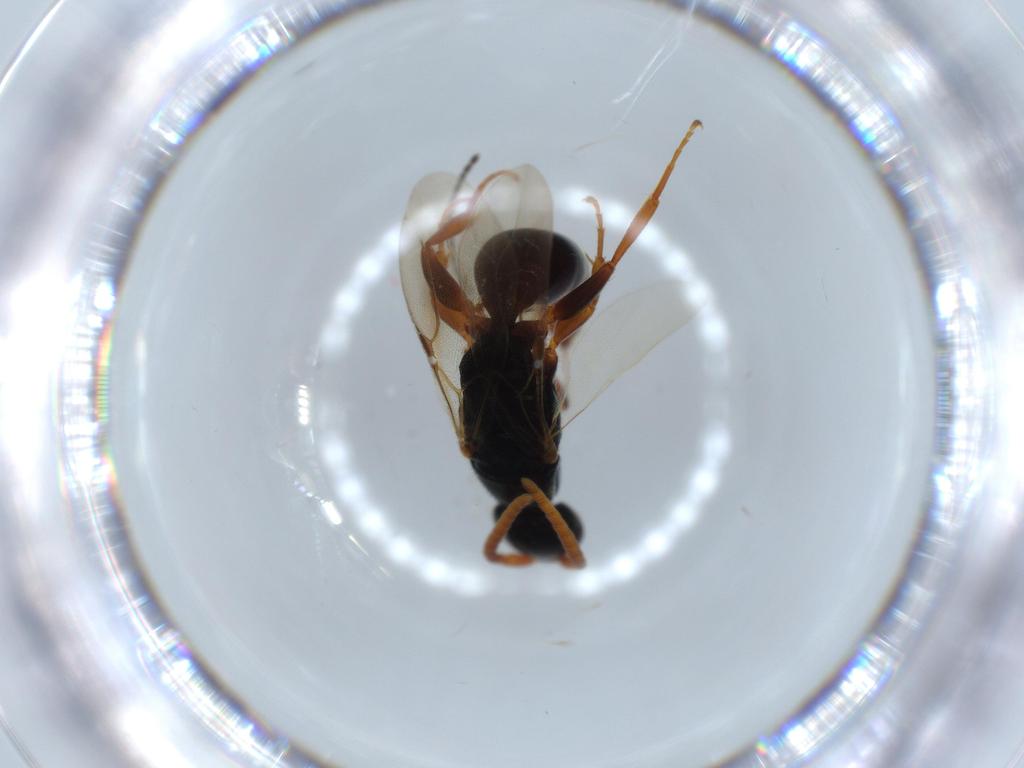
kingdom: Animalia
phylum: Arthropoda
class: Insecta
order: Hymenoptera
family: Bethylidae
